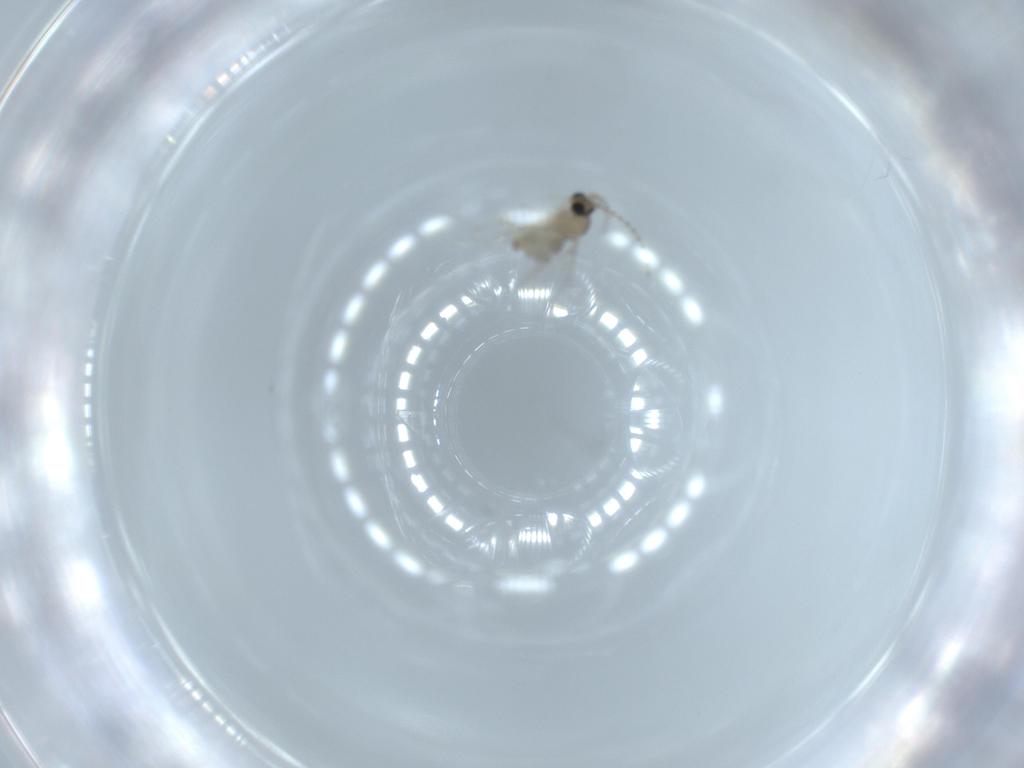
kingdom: Animalia
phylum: Arthropoda
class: Insecta
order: Diptera
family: Cecidomyiidae
